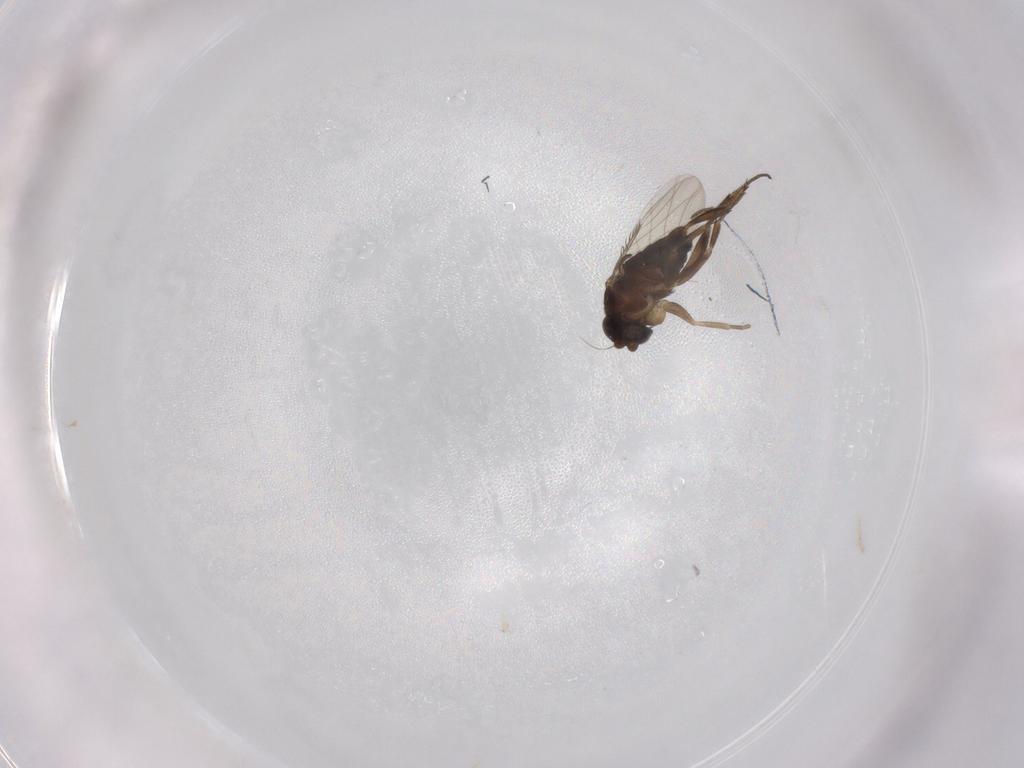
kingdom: Animalia
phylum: Arthropoda
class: Insecta
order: Diptera
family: Phoridae
